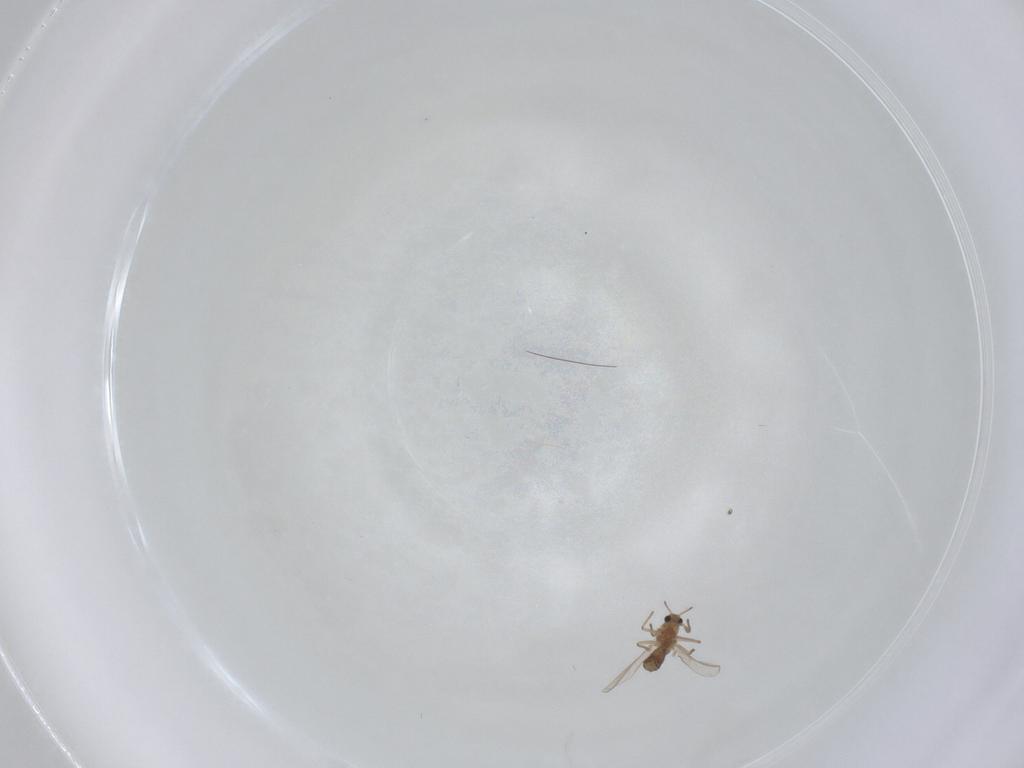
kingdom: Animalia
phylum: Arthropoda
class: Insecta
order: Diptera
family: Chironomidae
